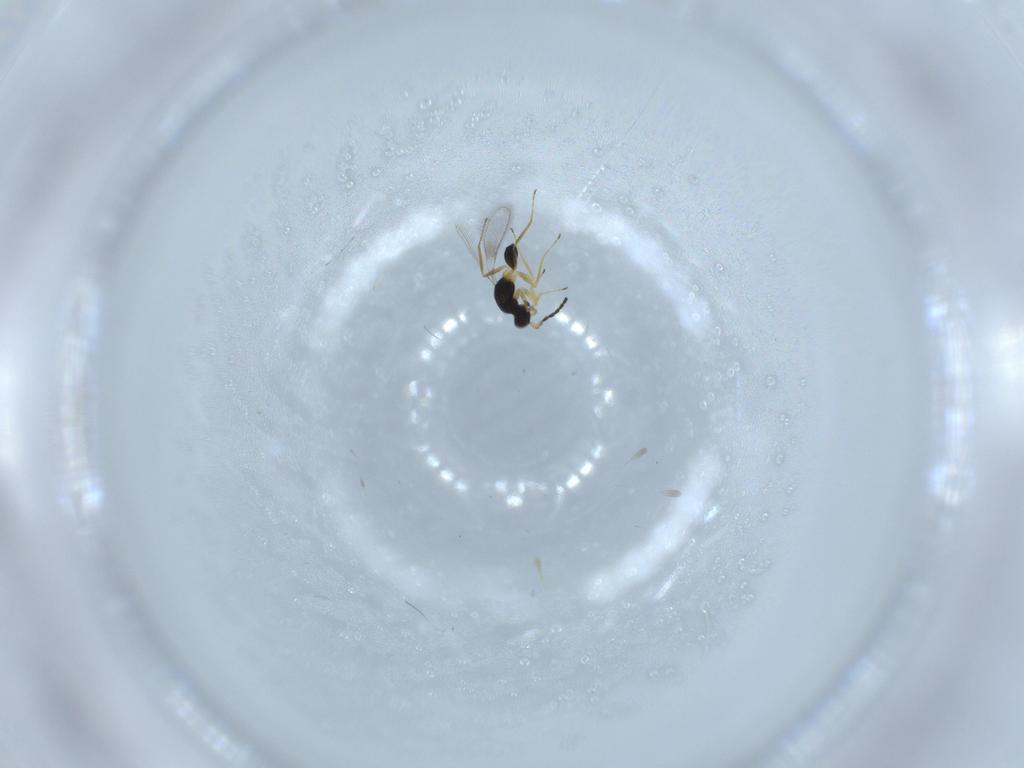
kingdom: Animalia
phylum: Arthropoda
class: Insecta
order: Hymenoptera
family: Mymaridae
